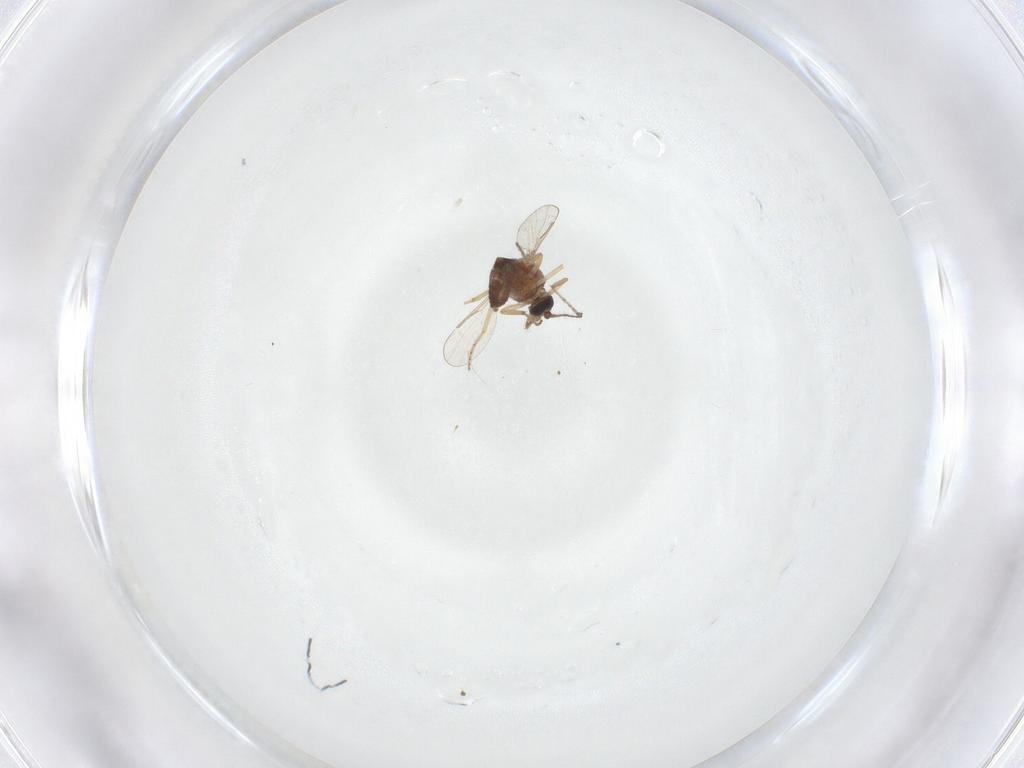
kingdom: Animalia
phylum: Arthropoda
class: Insecta
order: Diptera
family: Ceratopogonidae
